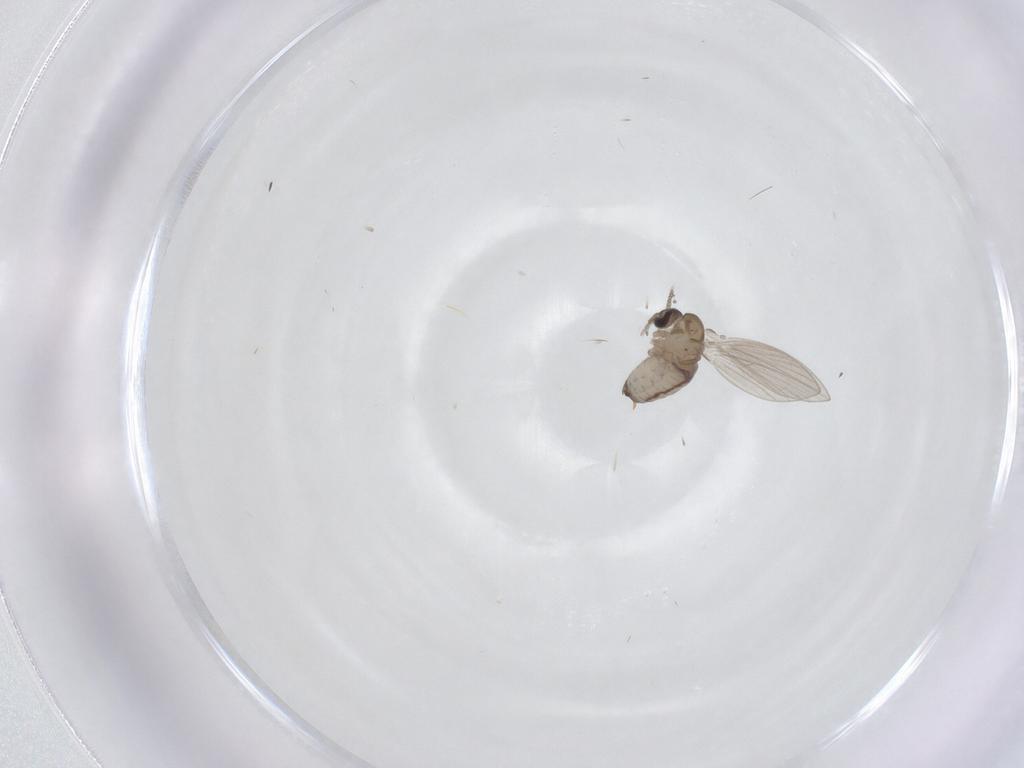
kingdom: Animalia
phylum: Arthropoda
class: Insecta
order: Diptera
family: Psychodidae
